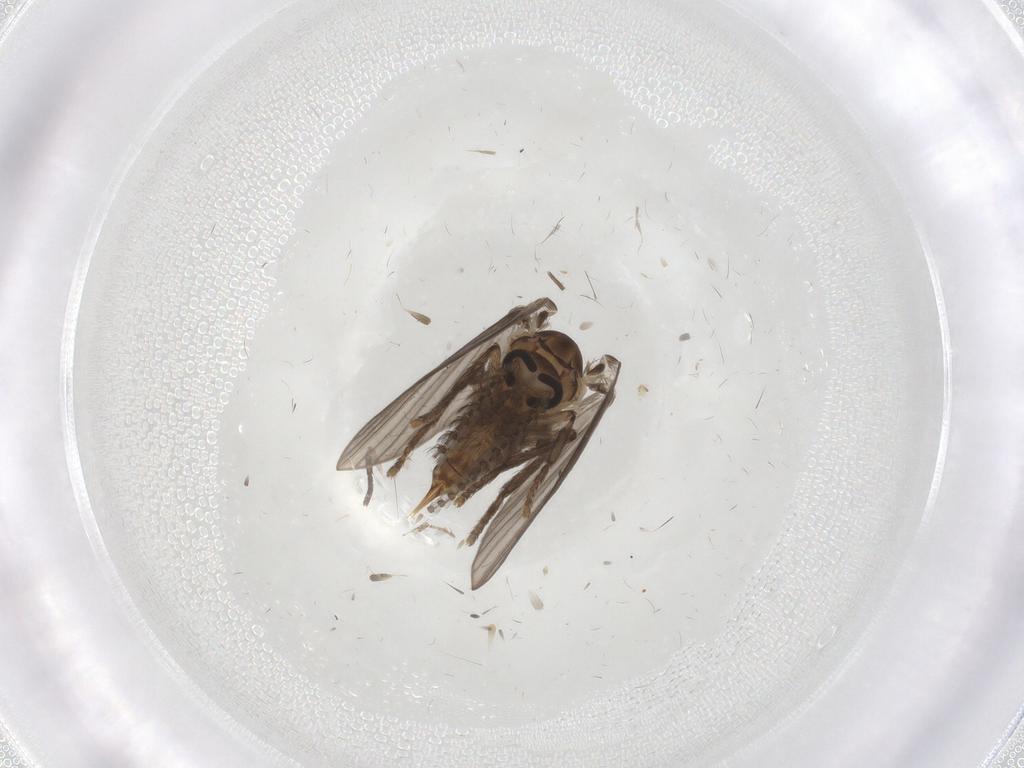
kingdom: Animalia
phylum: Arthropoda
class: Insecta
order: Diptera
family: Psychodidae
